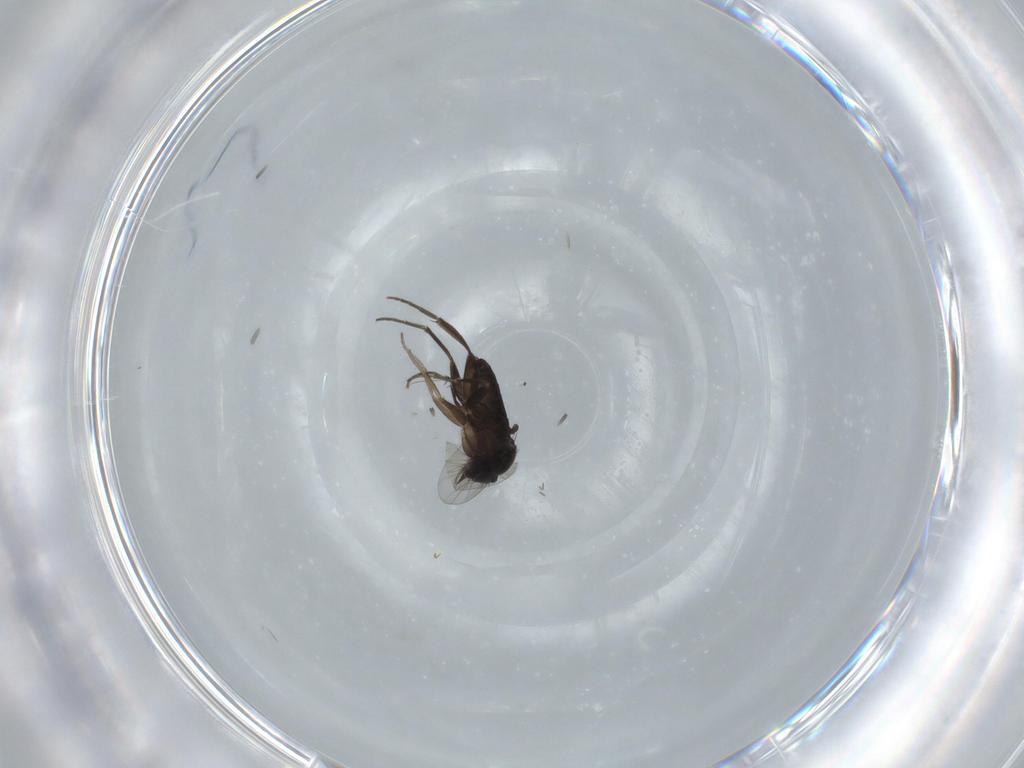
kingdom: Animalia
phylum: Arthropoda
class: Insecta
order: Diptera
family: Phoridae
